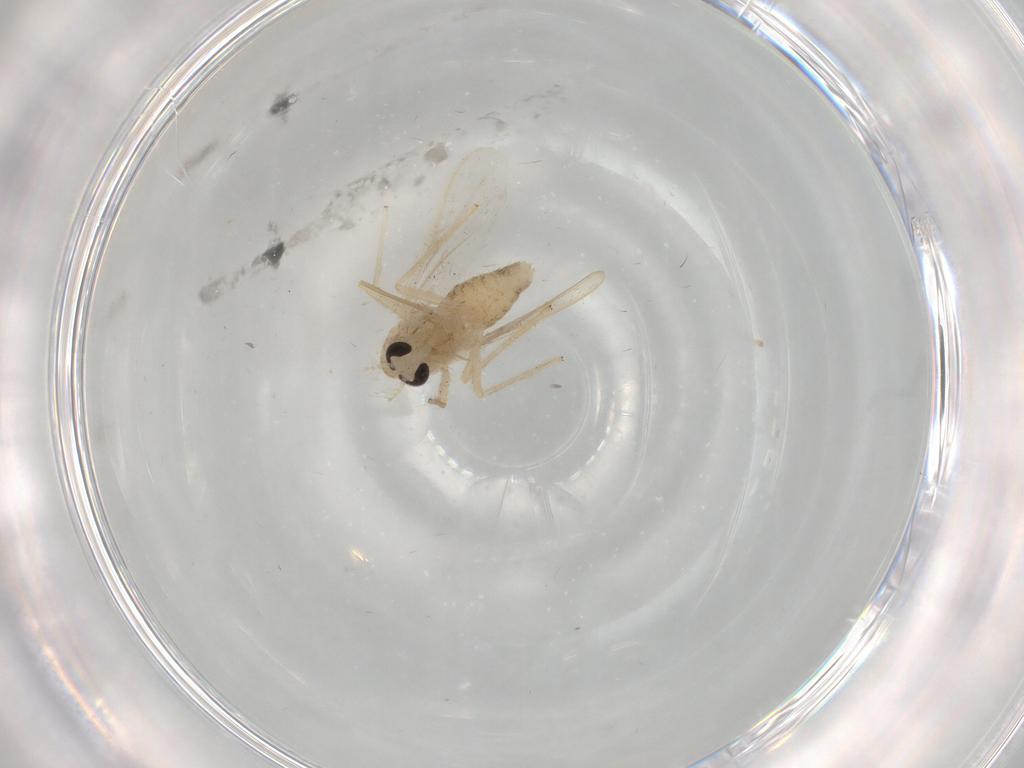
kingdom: Animalia
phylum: Arthropoda
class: Insecta
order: Diptera
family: Chironomidae
